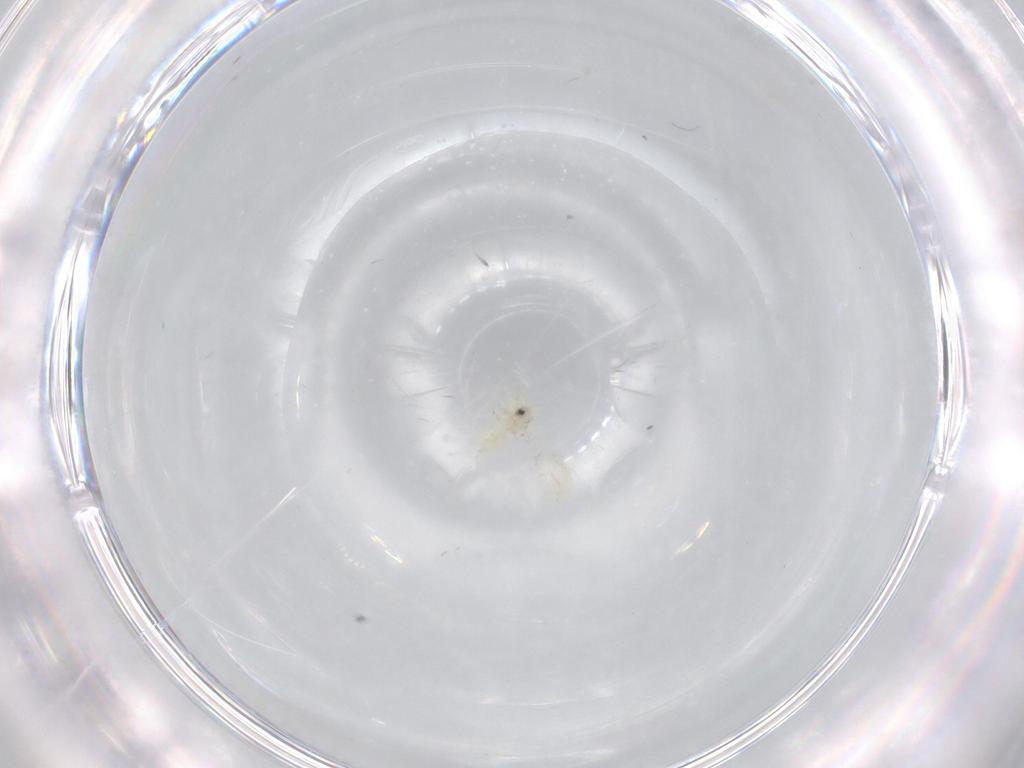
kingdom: Animalia
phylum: Arthropoda
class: Insecta
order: Hemiptera
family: Aleyrodidae
